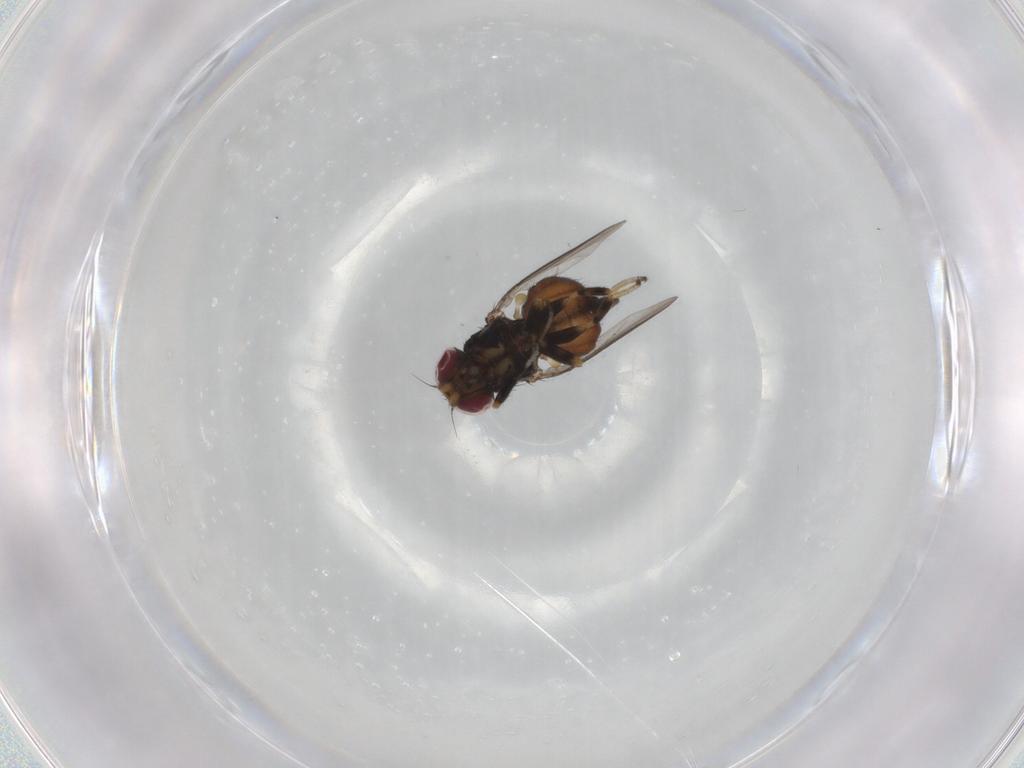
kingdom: Animalia
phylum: Arthropoda
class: Insecta
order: Diptera
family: Chloropidae
